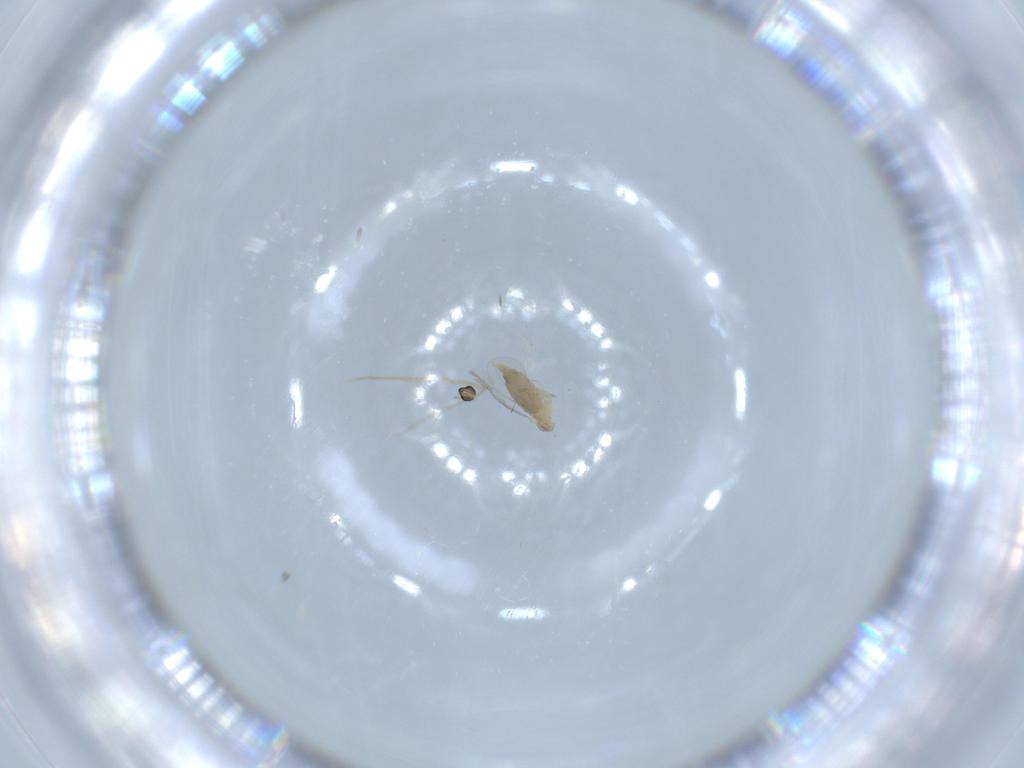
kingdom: Animalia
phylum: Arthropoda
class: Insecta
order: Diptera
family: Cecidomyiidae
